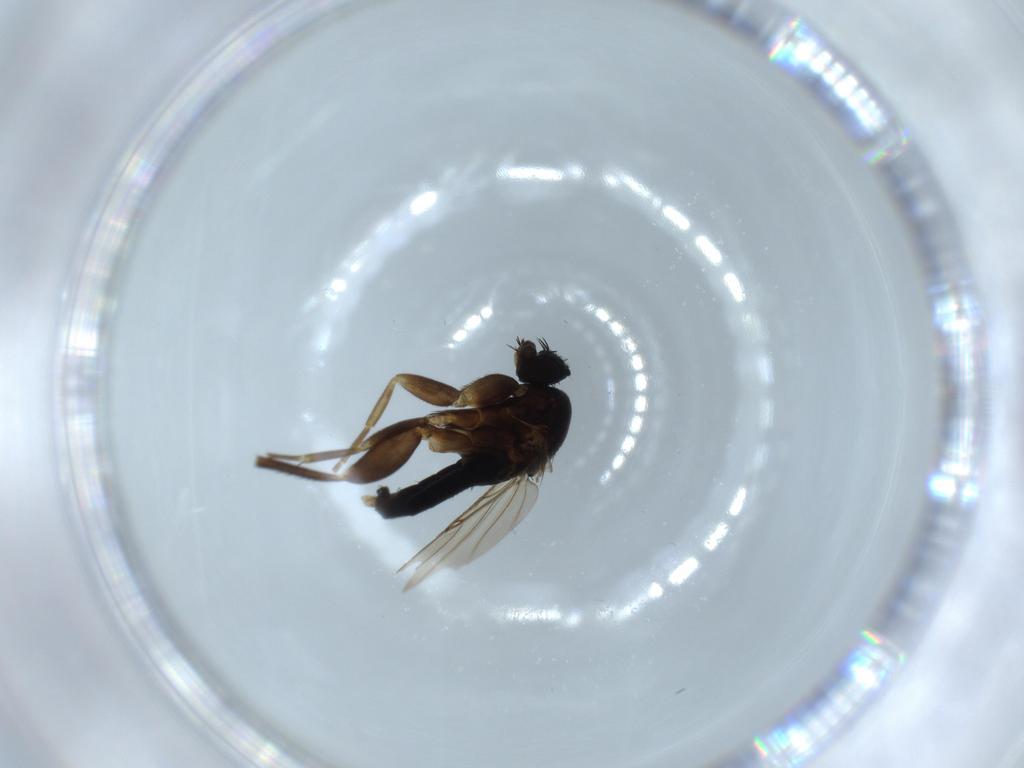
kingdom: Animalia
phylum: Arthropoda
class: Insecta
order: Diptera
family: Phoridae
